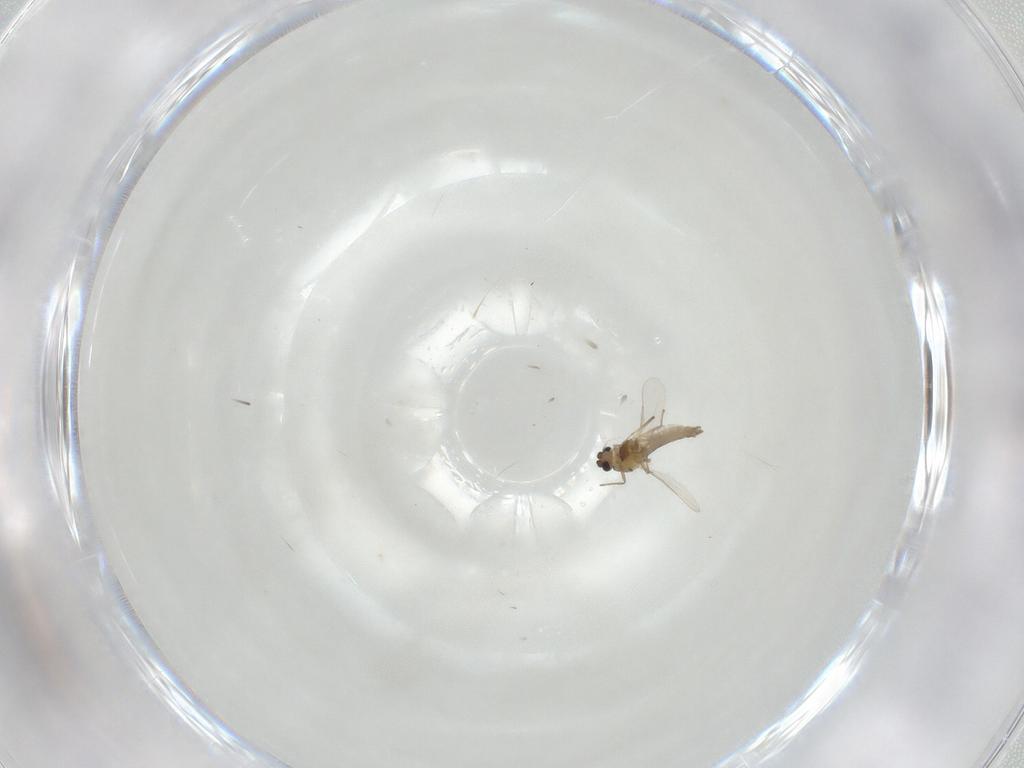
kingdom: Animalia
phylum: Arthropoda
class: Insecta
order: Diptera
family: Chironomidae
